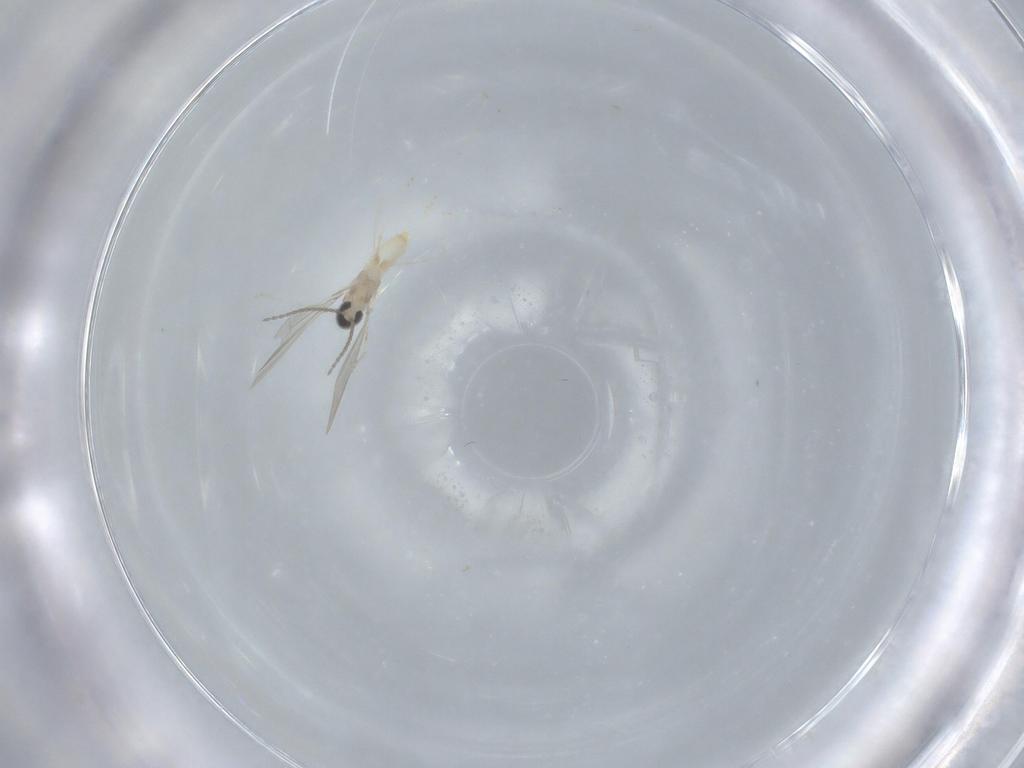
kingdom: Animalia
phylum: Arthropoda
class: Insecta
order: Diptera
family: Cecidomyiidae
